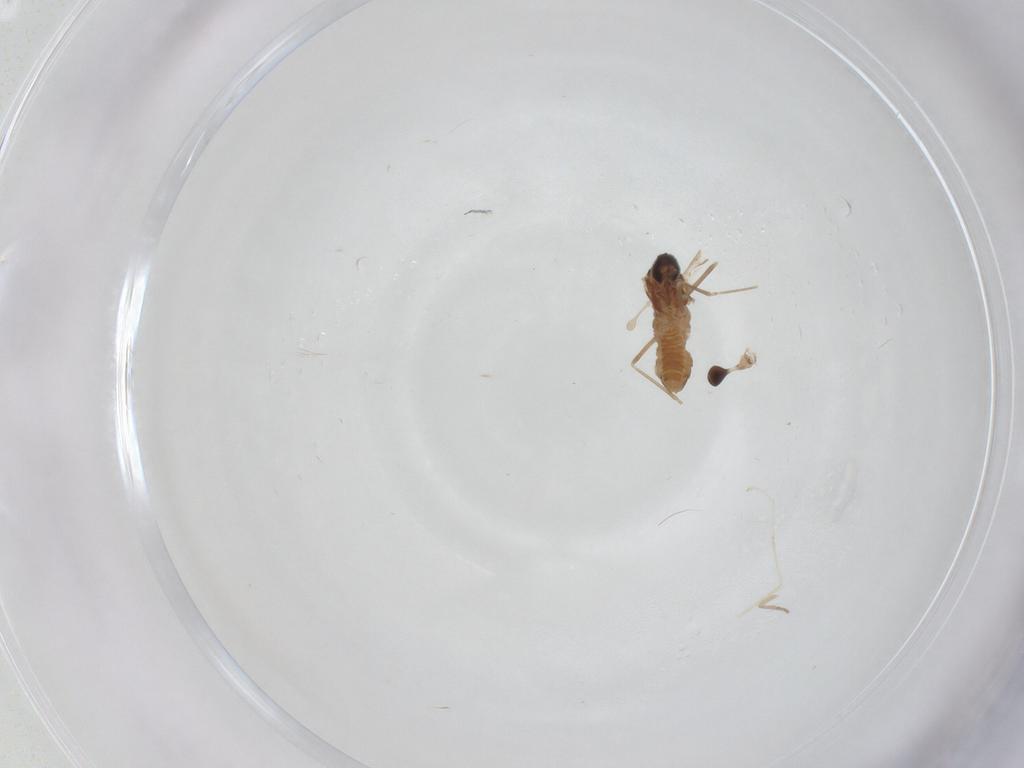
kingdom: Animalia
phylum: Arthropoda
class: Insecta
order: Diptera
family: Cecidomyiidae
